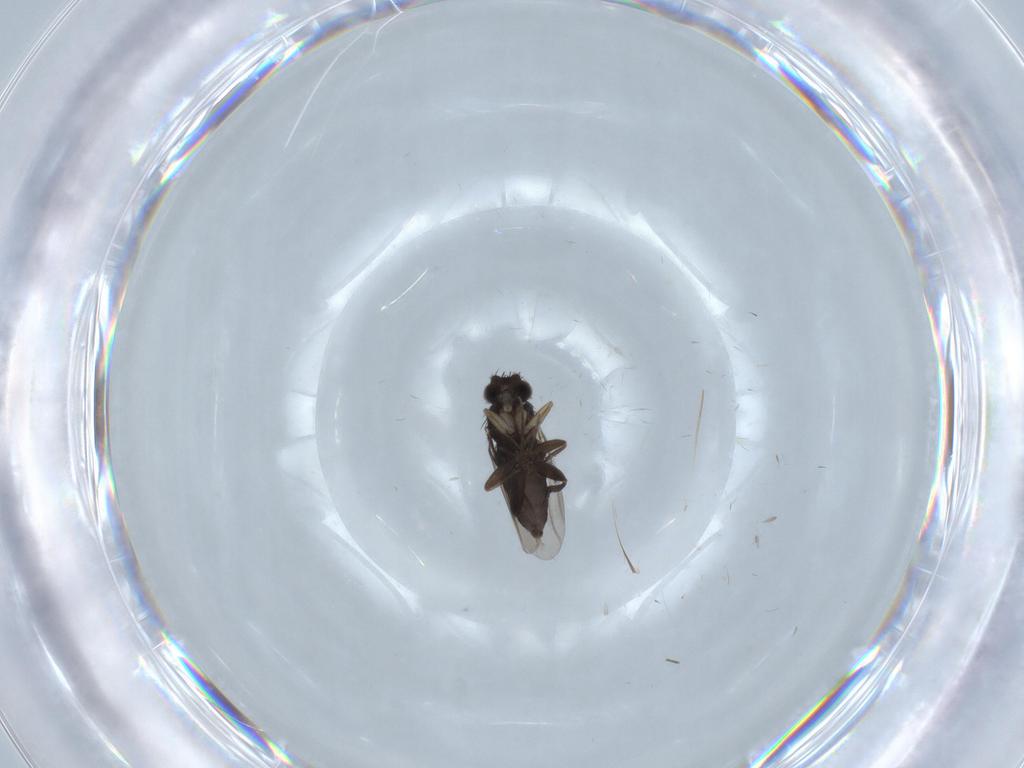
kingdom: Animalia
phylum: Arthropoda
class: Insecta
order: Diptera
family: Phoridae
